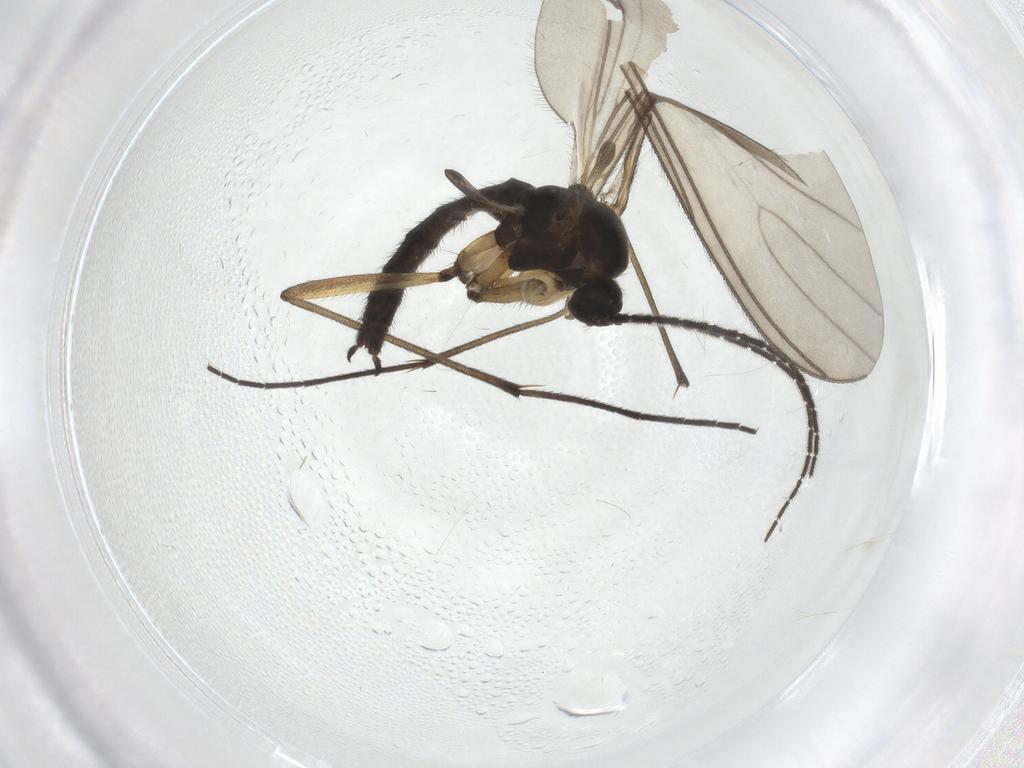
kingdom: Animalia
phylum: Arthropoda
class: Insecta
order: Diptera
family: Sciaridae
